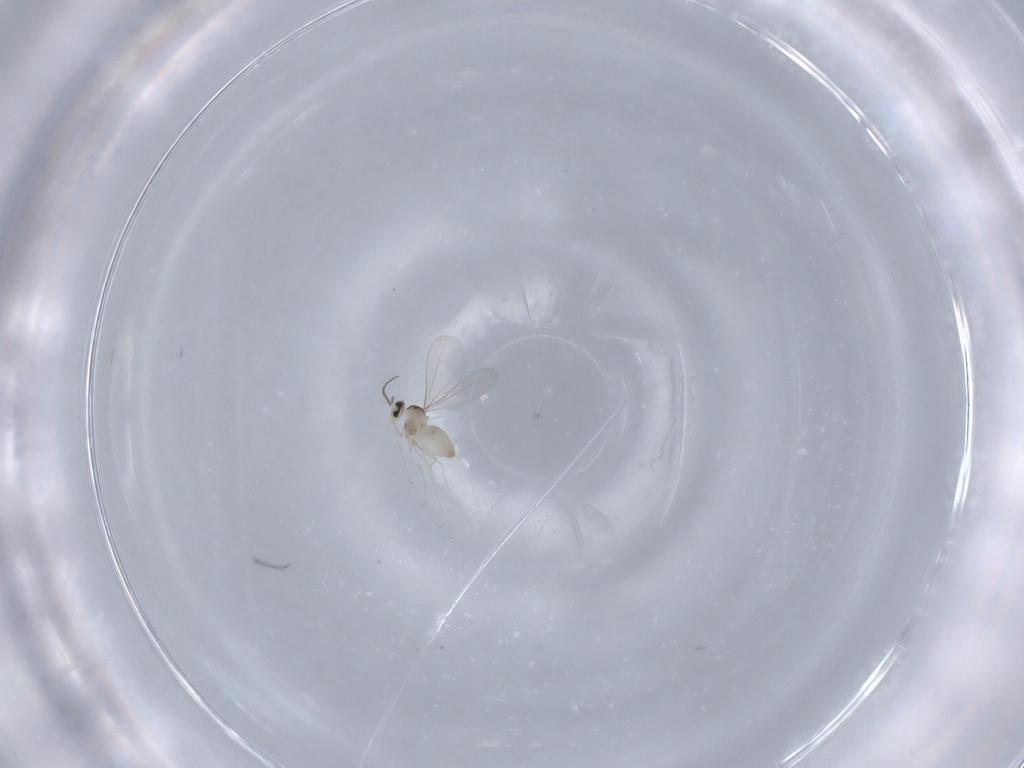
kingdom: Animalia
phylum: Arthropoda
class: Insecta
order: Diptera
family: Cecidomyiidae
